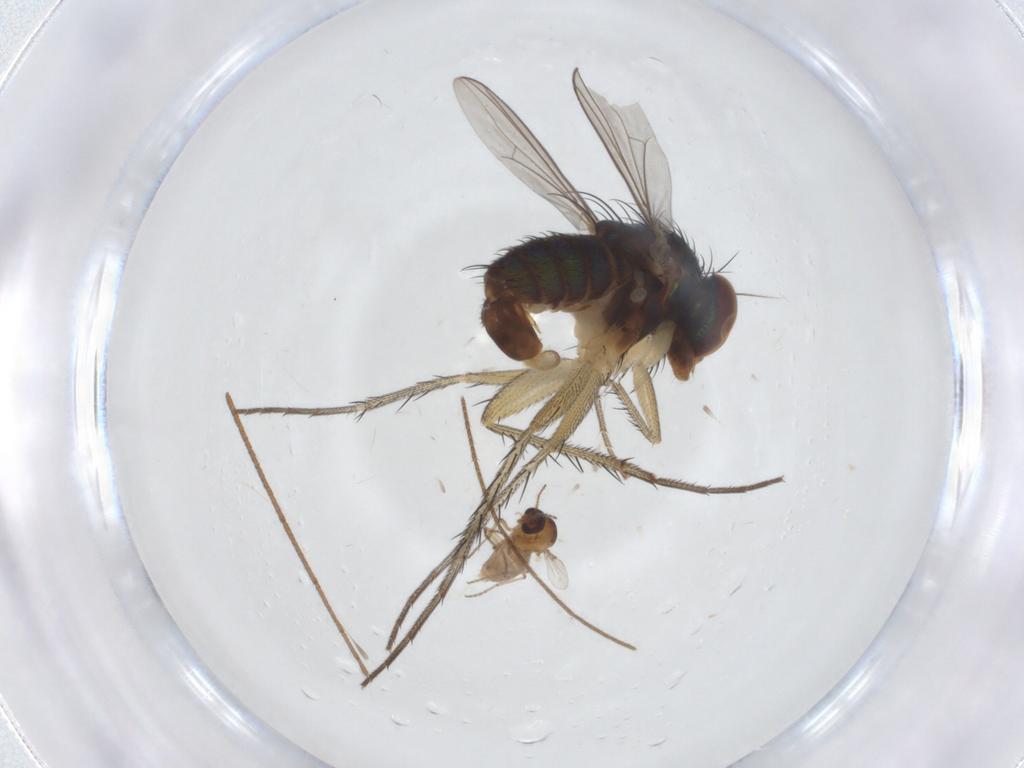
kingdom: Animalia
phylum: Arthropoda
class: Insecta
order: Diptera
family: Dolichopodidae
